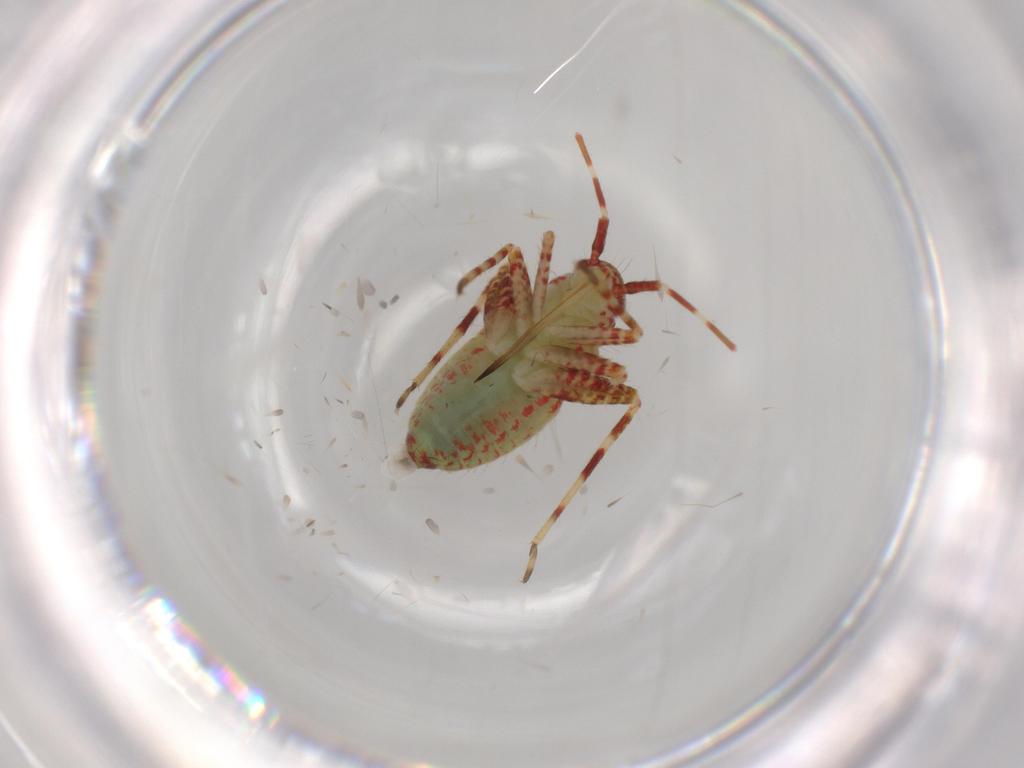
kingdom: Animalia
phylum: Arthropoda
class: Insecta
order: Hemiptera
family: Miridae
